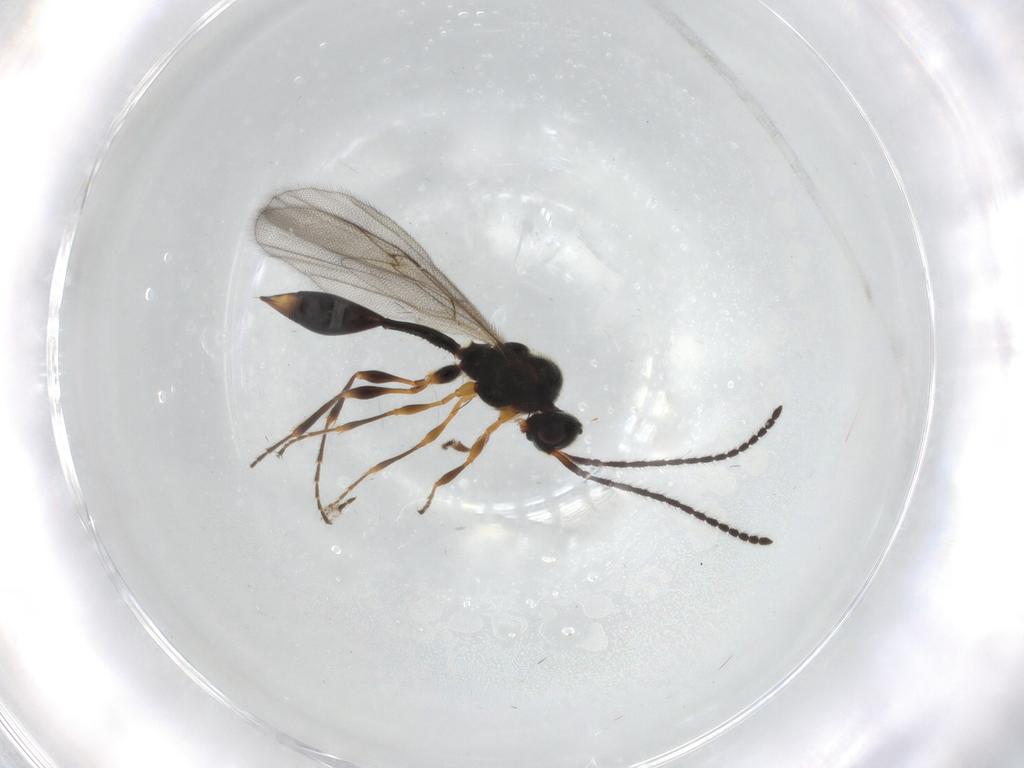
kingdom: Animalia
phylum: Arthropoda
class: Insecta
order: Hymenoptera
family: Diapriidae
